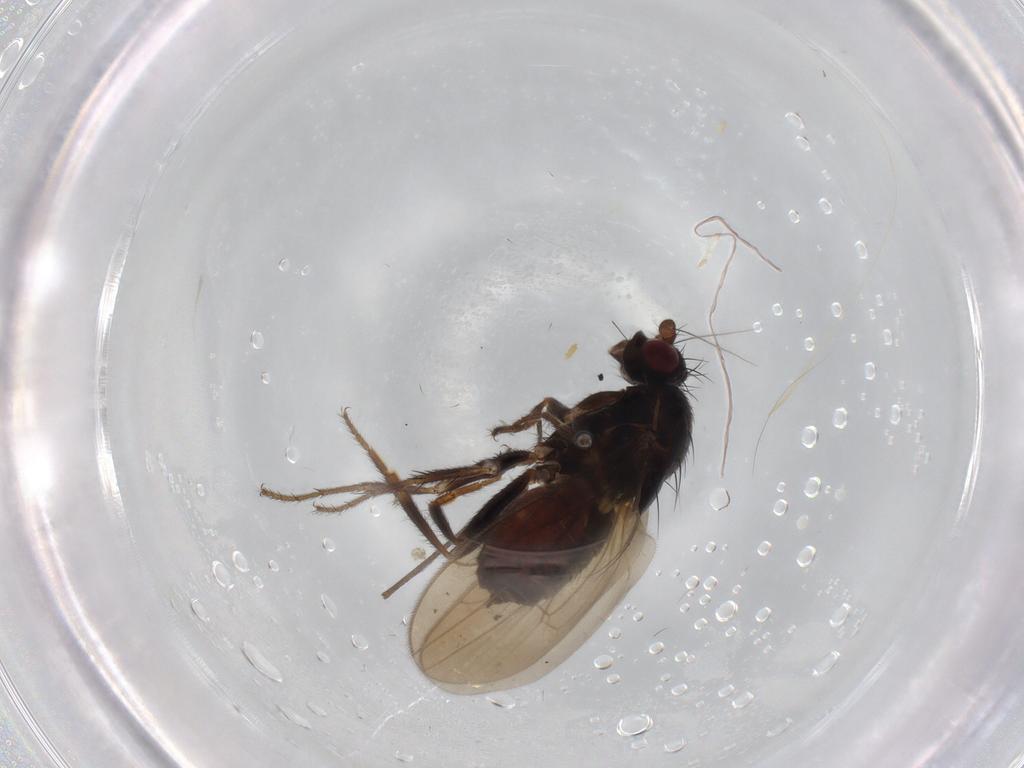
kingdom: Animalia
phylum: Arthropoda
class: Insecta
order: Diptera
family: Sphaeroceridae
